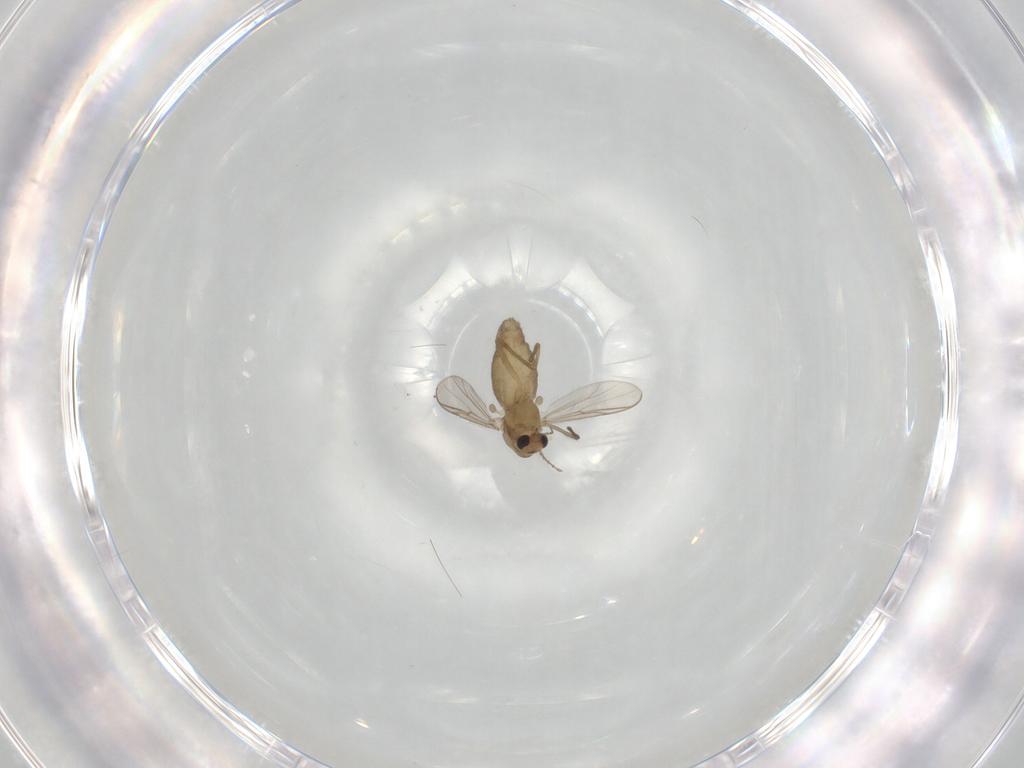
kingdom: Animalia
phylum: Arthropoda
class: Insecta
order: Diptera
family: Chironomidae
